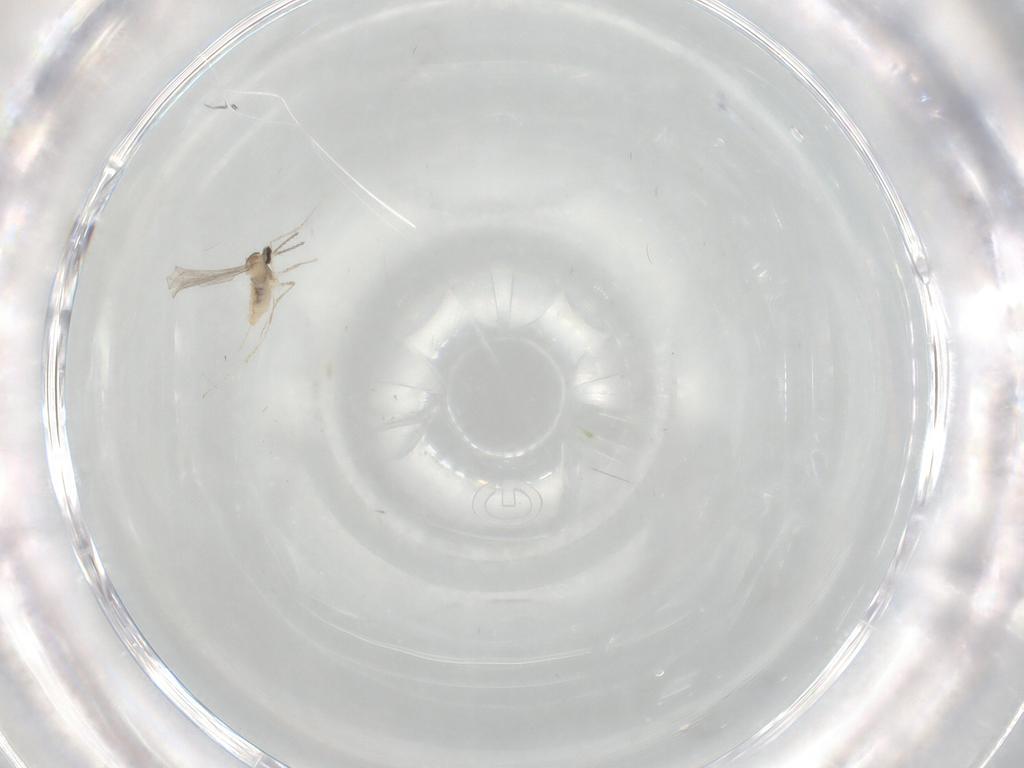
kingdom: Animalia
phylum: Arthropoda
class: Insecta
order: Diptera
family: Cecidomyiidae
